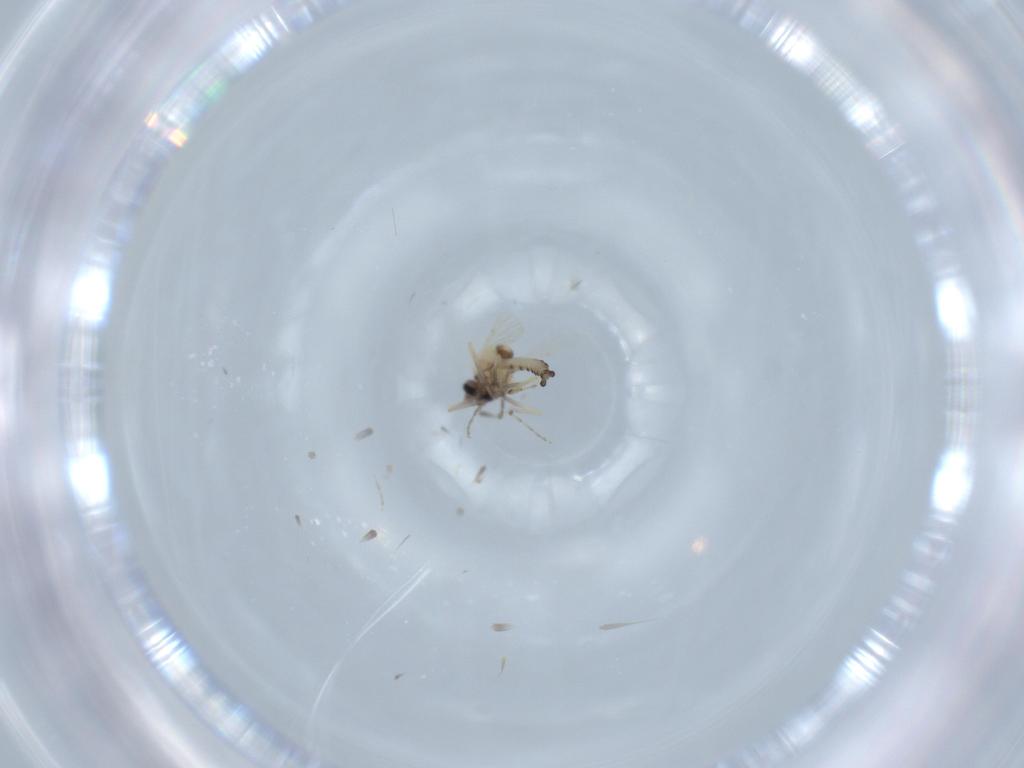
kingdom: Animalia
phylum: Arthropoda
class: Insecta
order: Diptera
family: Ceratopogonidae
